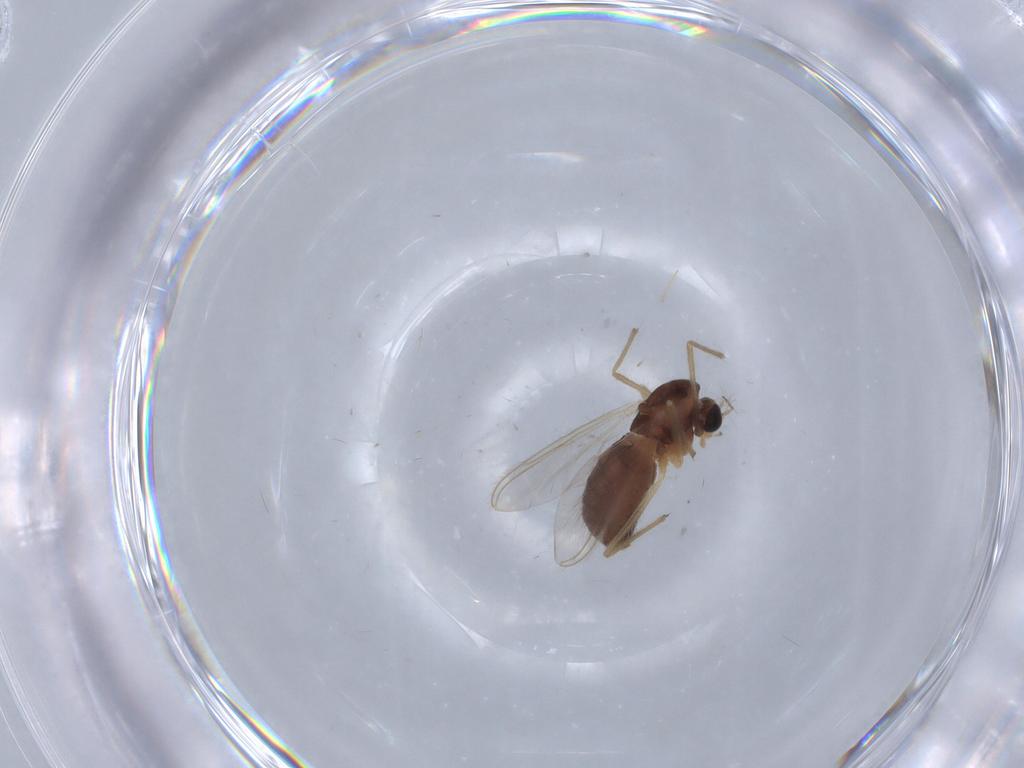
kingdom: Animalia
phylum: Arthropoda
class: Insecta
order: Diptera
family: Chironomidae
